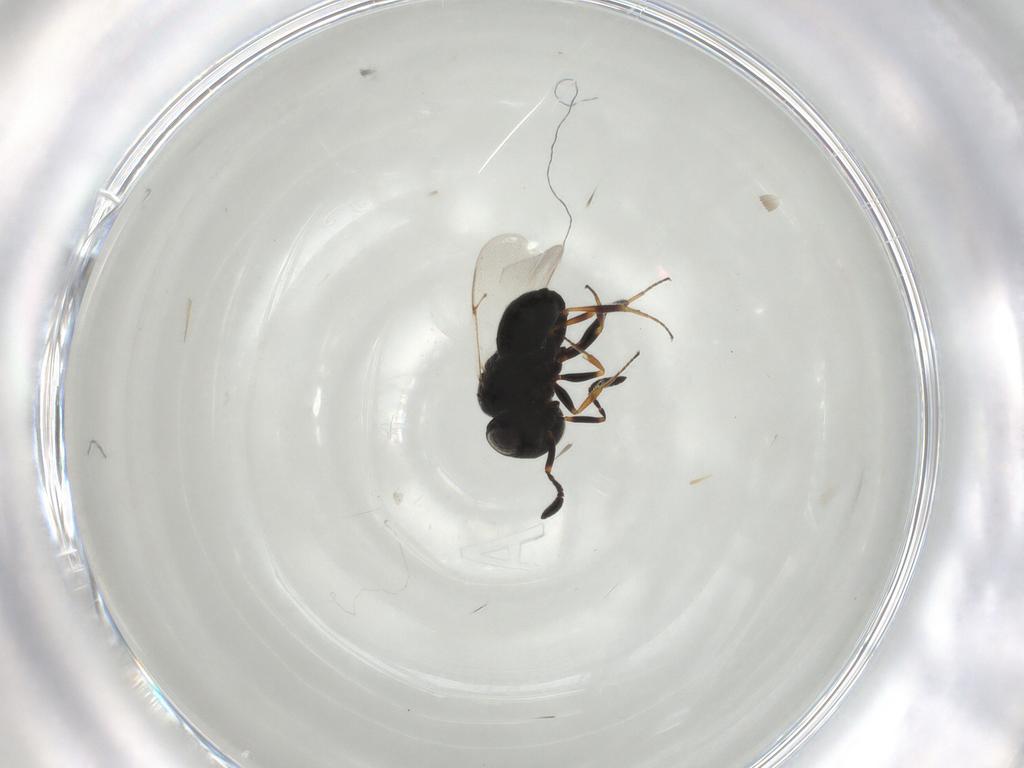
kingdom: Animalia
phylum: Arthropoda
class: Insecta
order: Hymenoptera
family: Scelionidae
